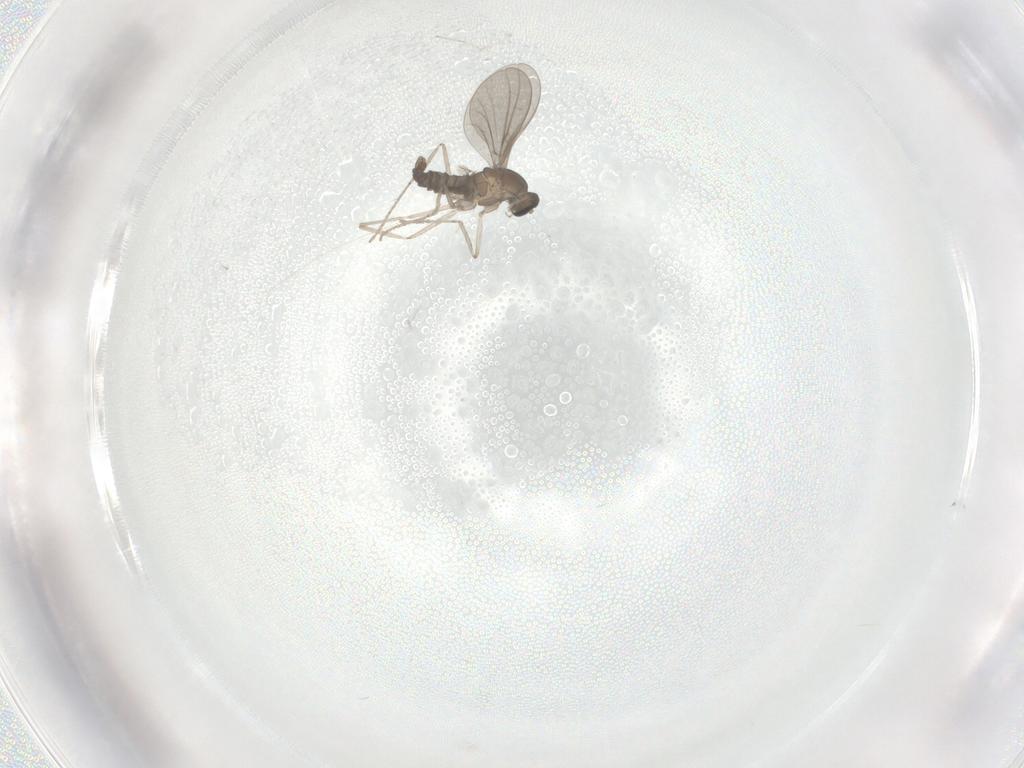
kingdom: Animalia
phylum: Arthropoda
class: Insecta
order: Diptera
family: Cecidomyiidae
